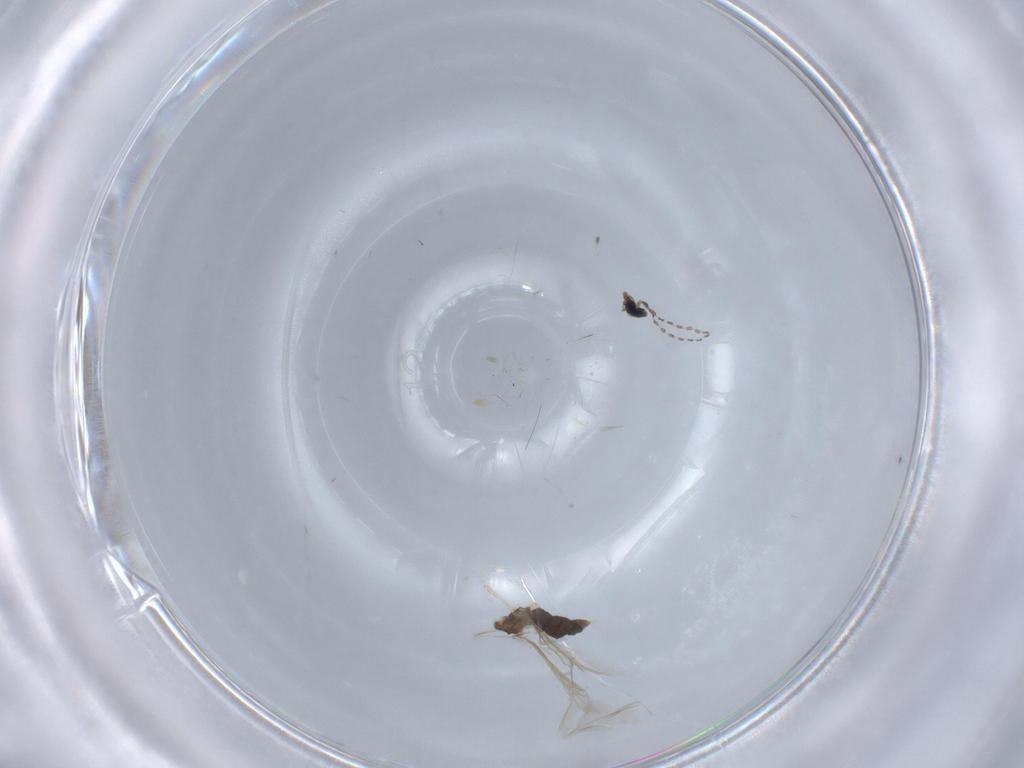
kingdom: Animalia
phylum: Arthropoda
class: Insecta
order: Diptera
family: Cecidomyiidae
